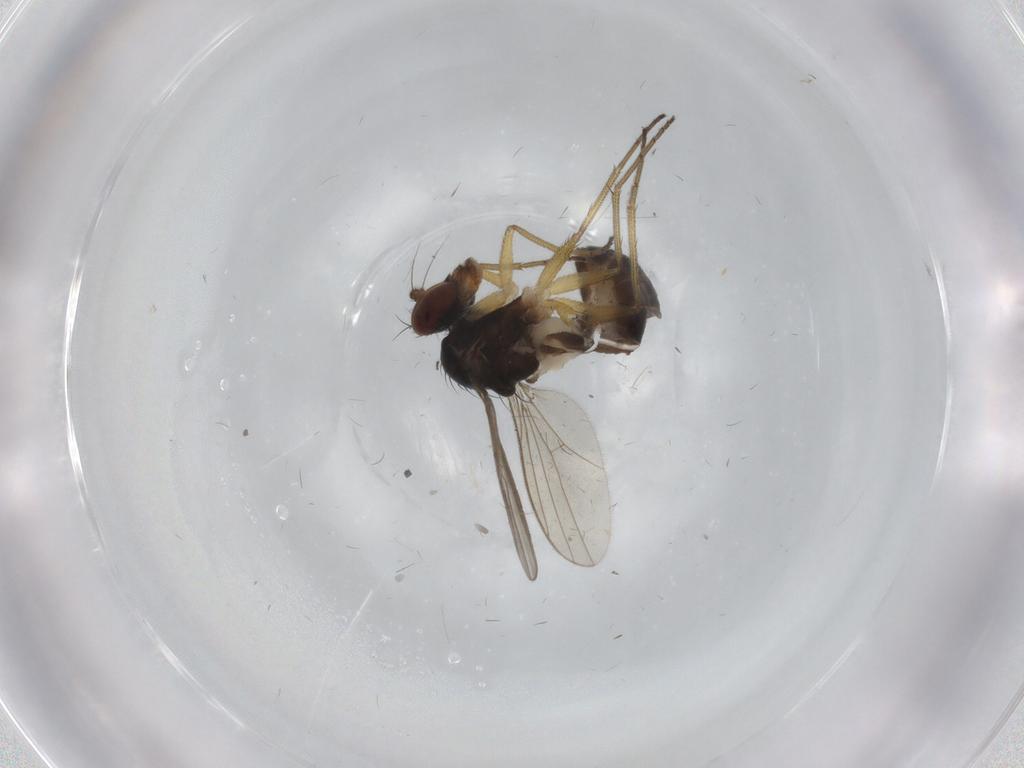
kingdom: Animalia
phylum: Arthropoda
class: Insecta
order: Diptera
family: Dolichopodidae
